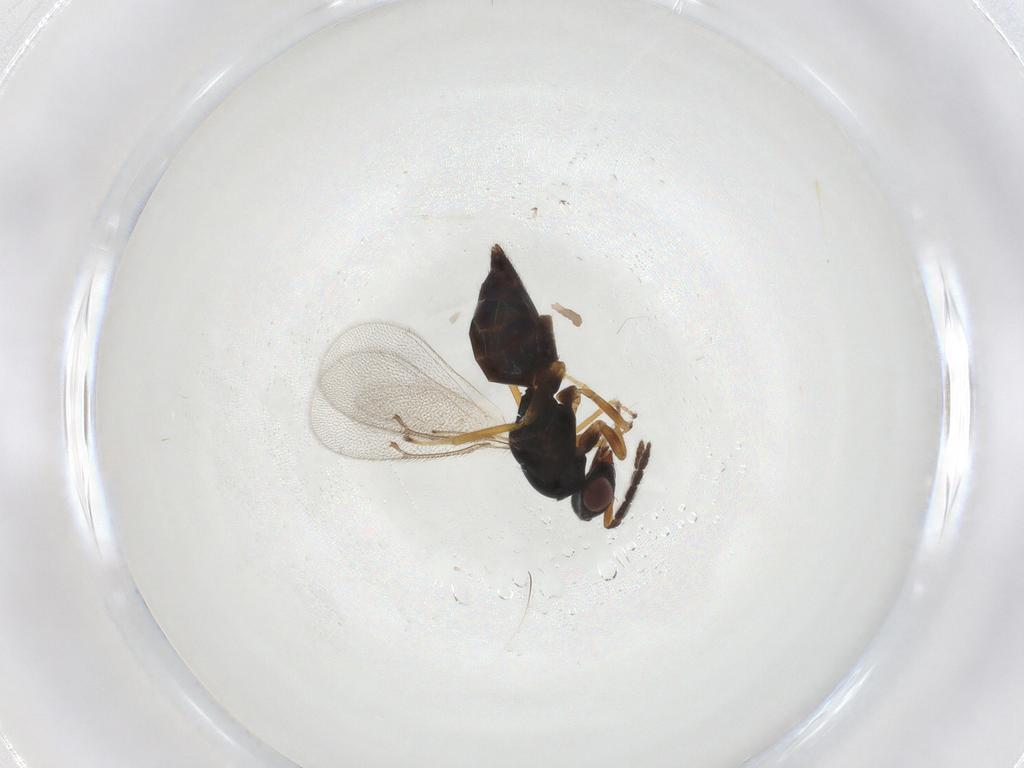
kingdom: Animalia
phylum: Arthropoda
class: Insecta
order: Hymenoptera
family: Eulophidae
